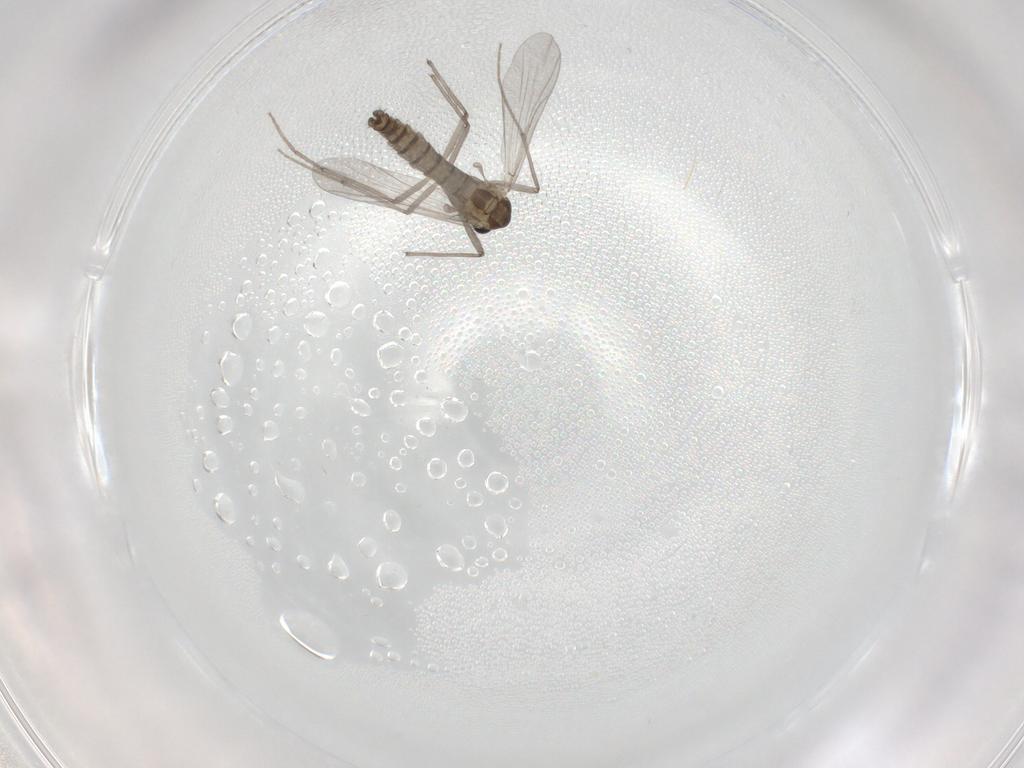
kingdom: Animalia
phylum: Arthropoda
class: Insecta
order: Diptera
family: Chironomidae
